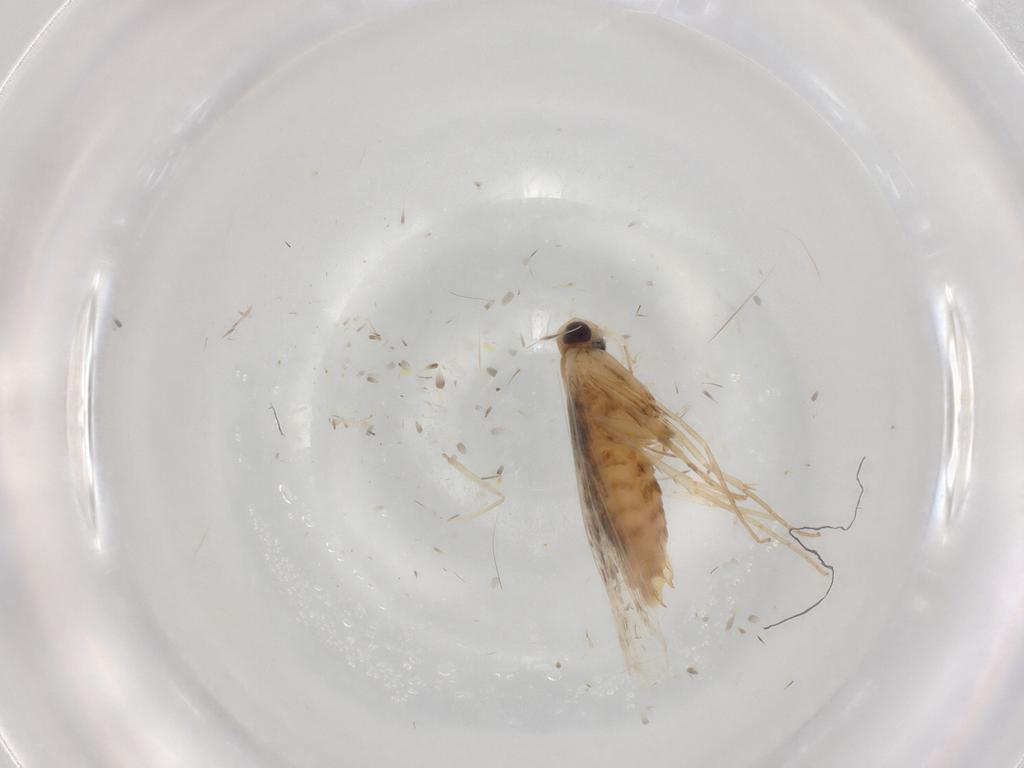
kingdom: Animalia
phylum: Arthropoda
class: Insecta
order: Lepidoptera
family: Gracillariidae
